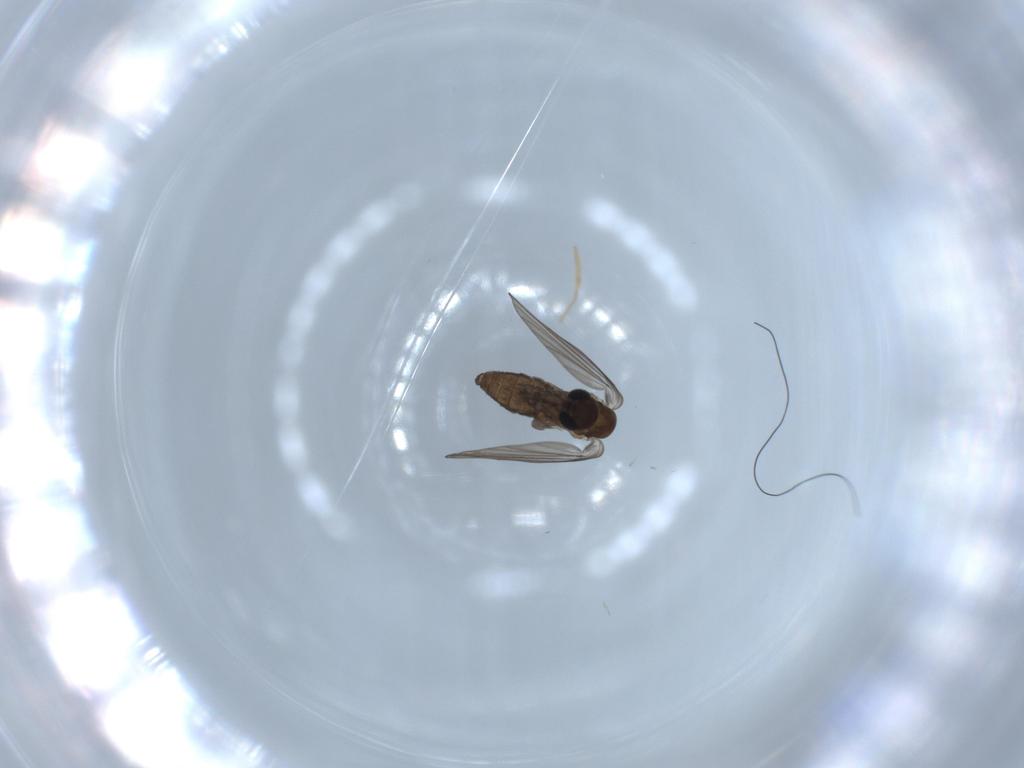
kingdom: Animalia
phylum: Arthropoda
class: Insecta
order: Diptera
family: Psychodidae
